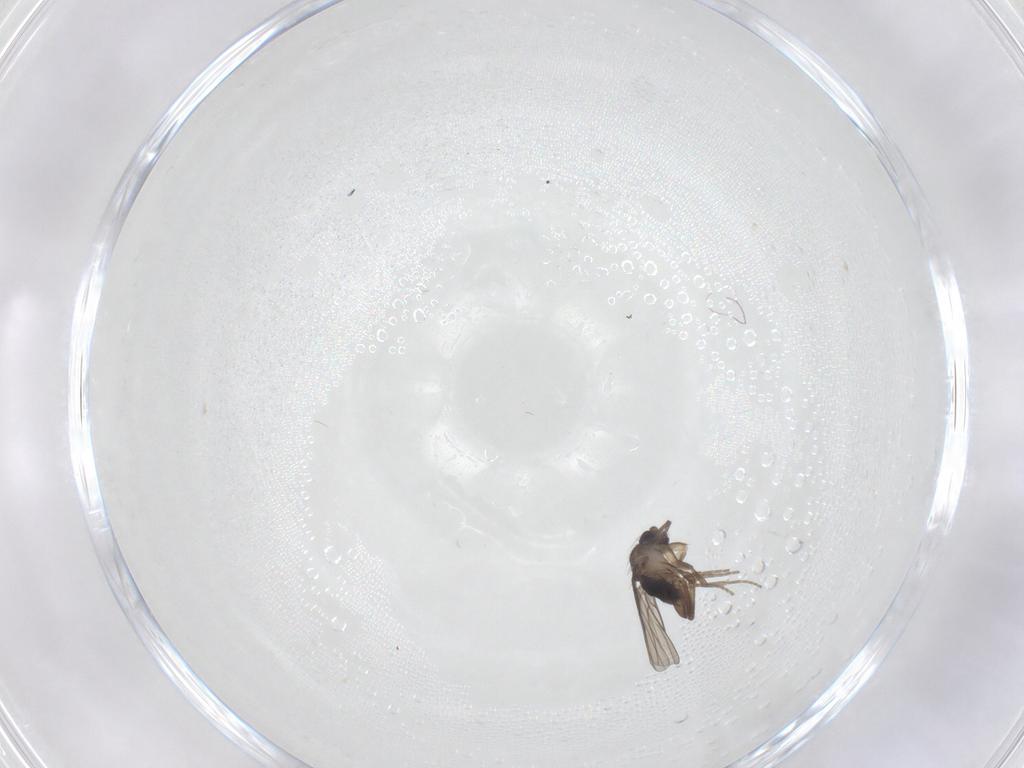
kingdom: Animalia
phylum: Arthropoda
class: Insecta
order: Diptera
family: Phoridae
